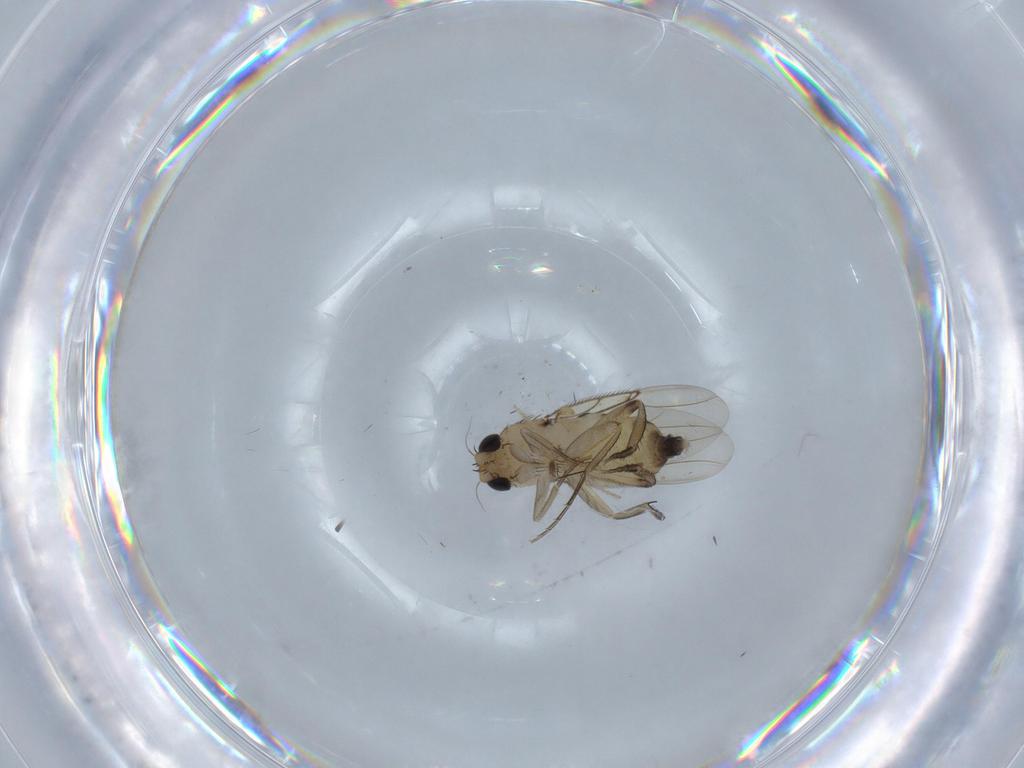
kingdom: Animalia
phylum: Arthropoda
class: Insecta
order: Diptera
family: Phoridae
